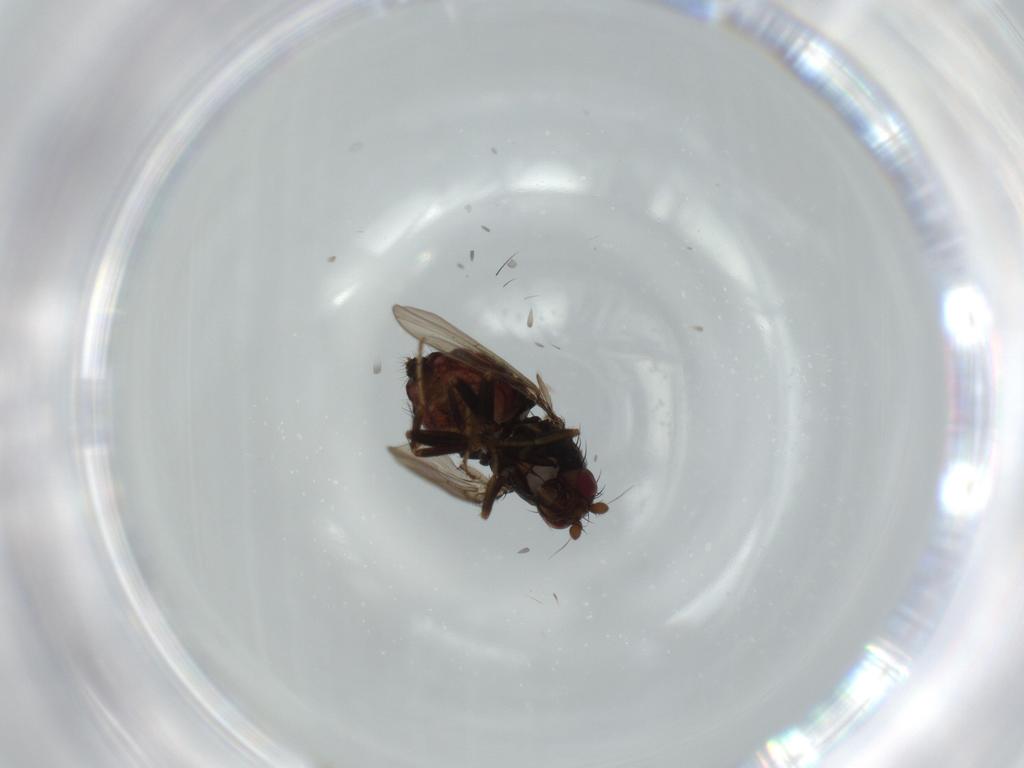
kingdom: Animalia
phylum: Arthropoda
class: Insecta
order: Diptera
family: Sphaeroceridae
